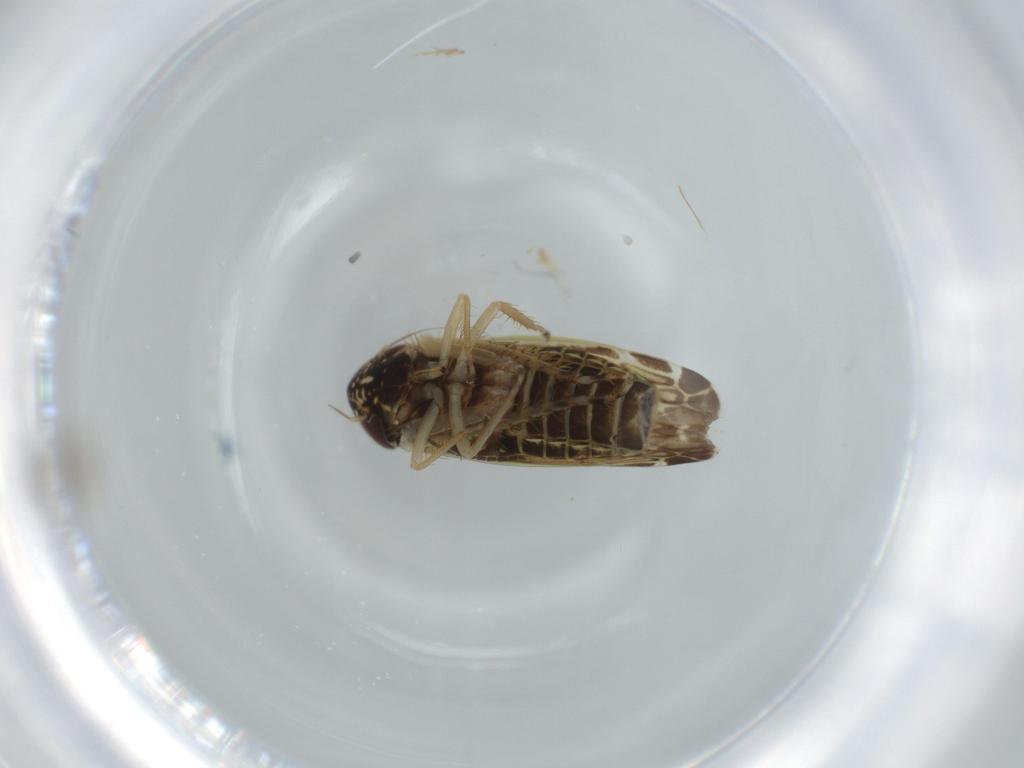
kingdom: Animalia
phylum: Arthropoda
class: Insecta
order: Hemiptera
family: Cicadellidae
